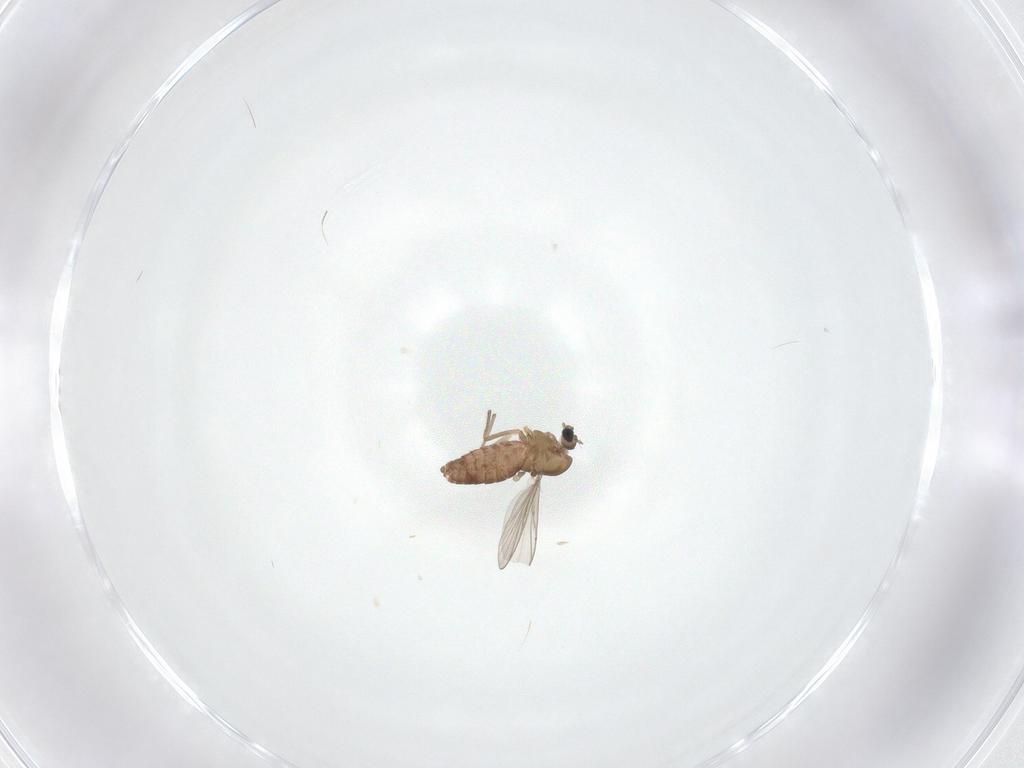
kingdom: Animalia
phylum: Arthropoda
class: Insecta
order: Diptera
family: Chironomidae
